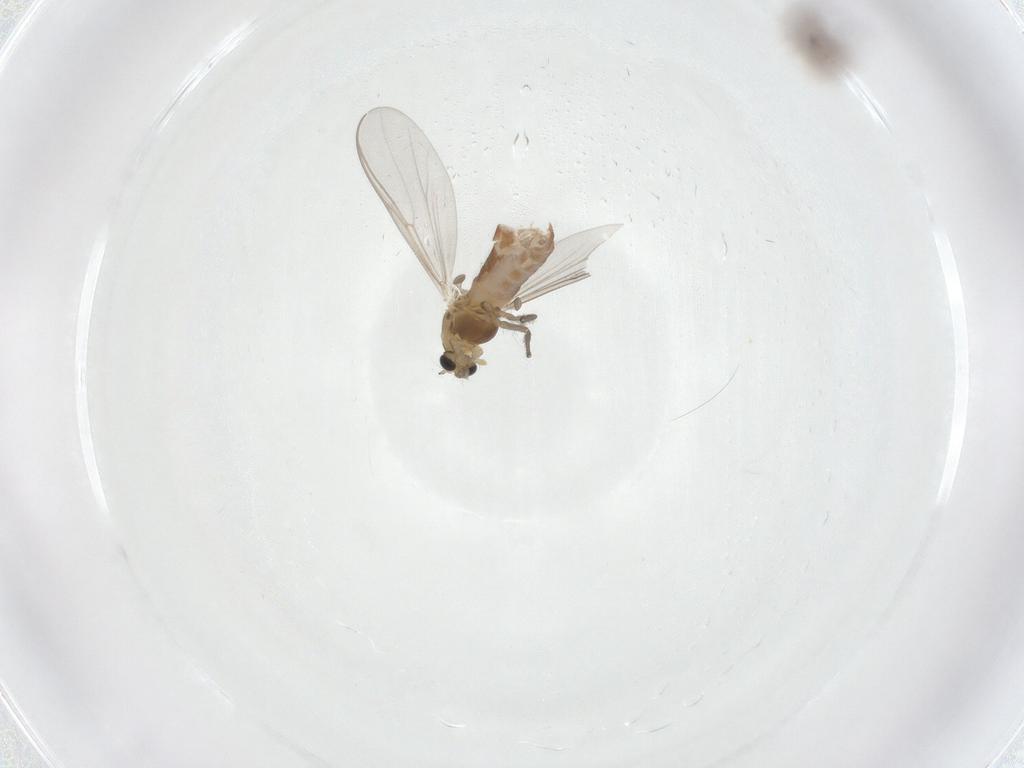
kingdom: Animalia
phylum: Arthropoda
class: Insecta
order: Diptera
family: Chironomidae
